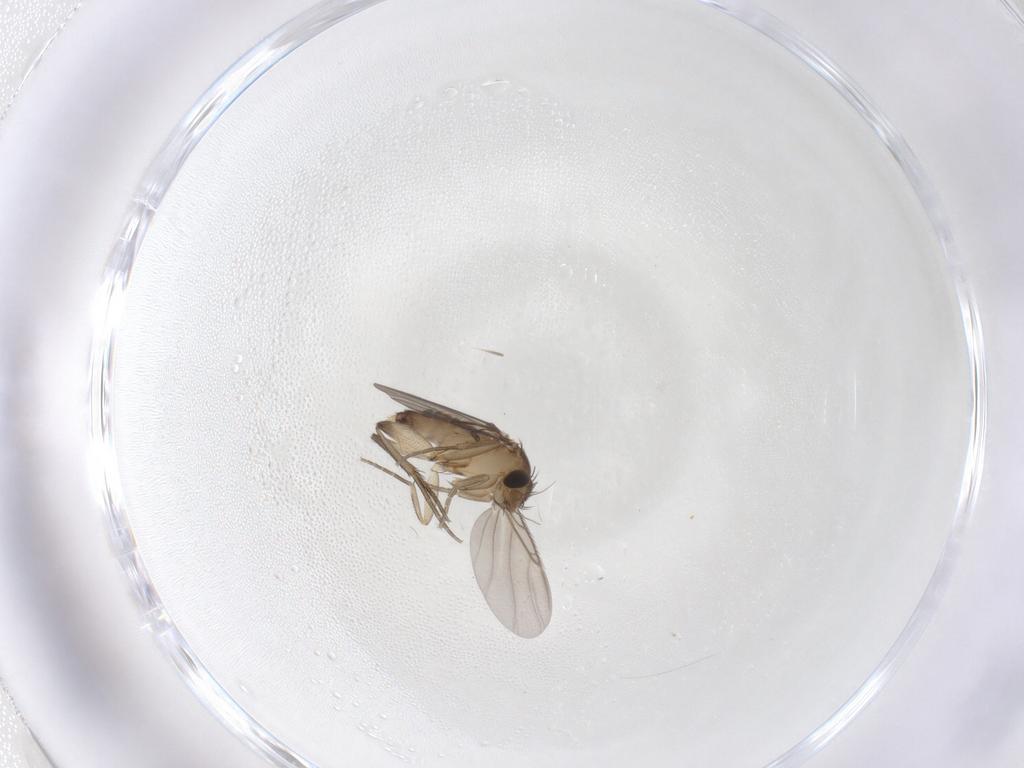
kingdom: Animalia
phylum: Arthropoda
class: Insecta
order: Diptera
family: Phoridae
